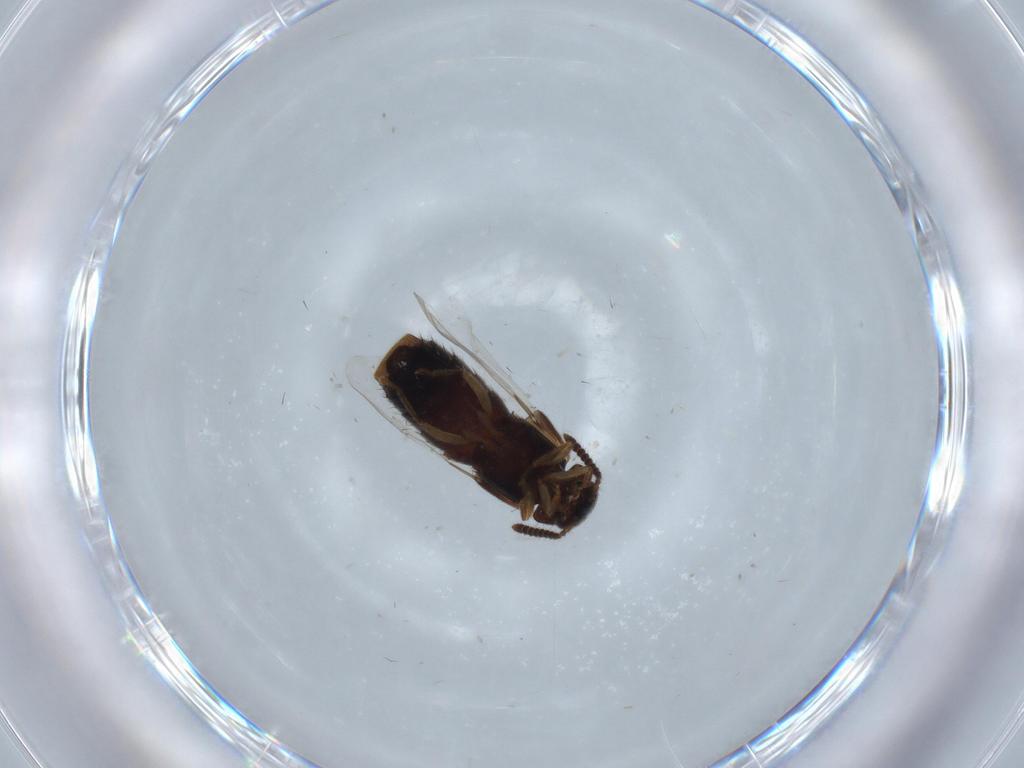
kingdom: Animalia
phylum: Arthropoda
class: Insecta
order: Coleoptera
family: Staphylinidae
